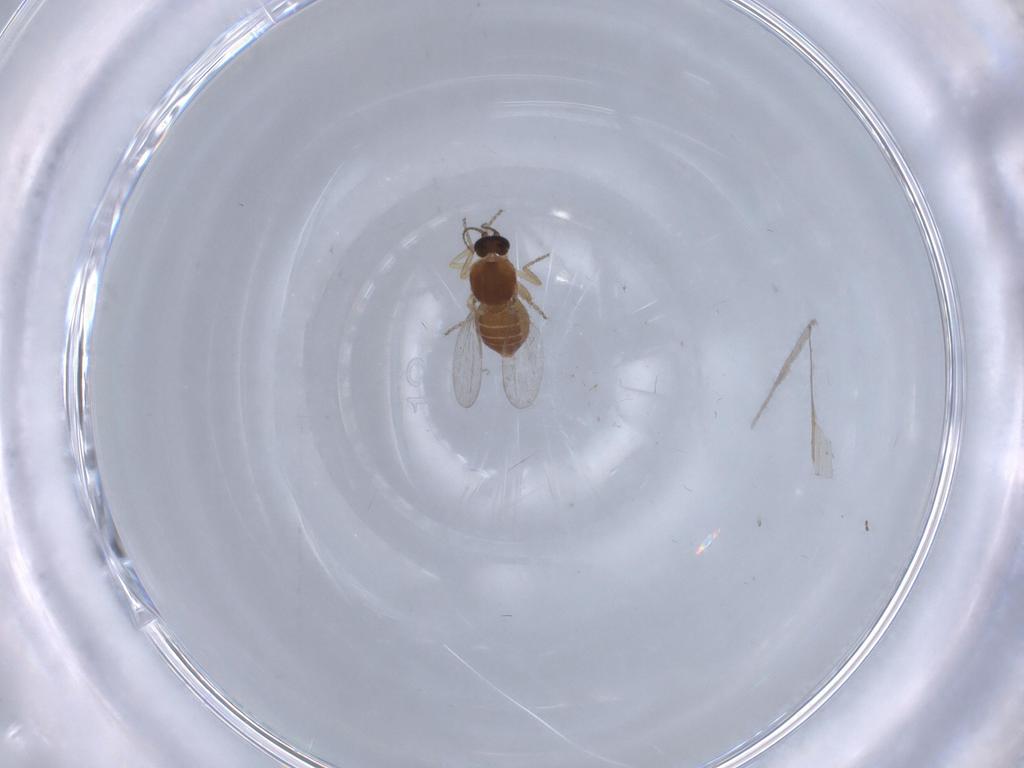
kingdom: Animalia
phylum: Arthropoda
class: Insecta
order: Diptera
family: Ceratopogonidae
